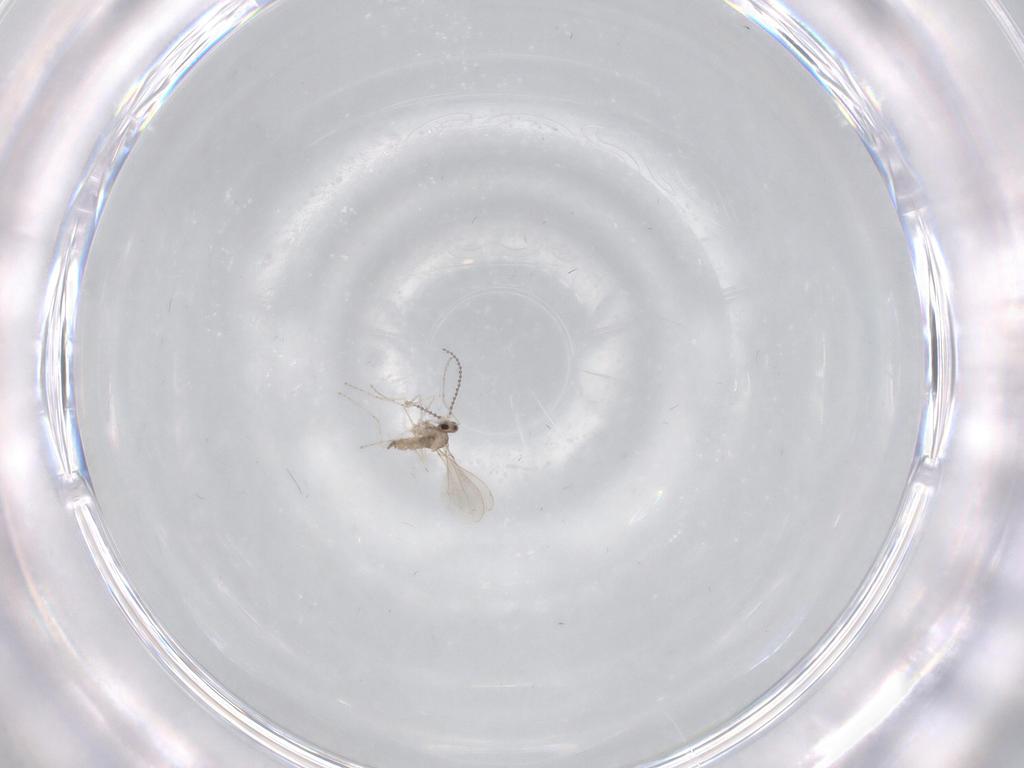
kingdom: Animalia
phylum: Arthropoda
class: Insecta
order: Diptera
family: Cecidomyiidae
